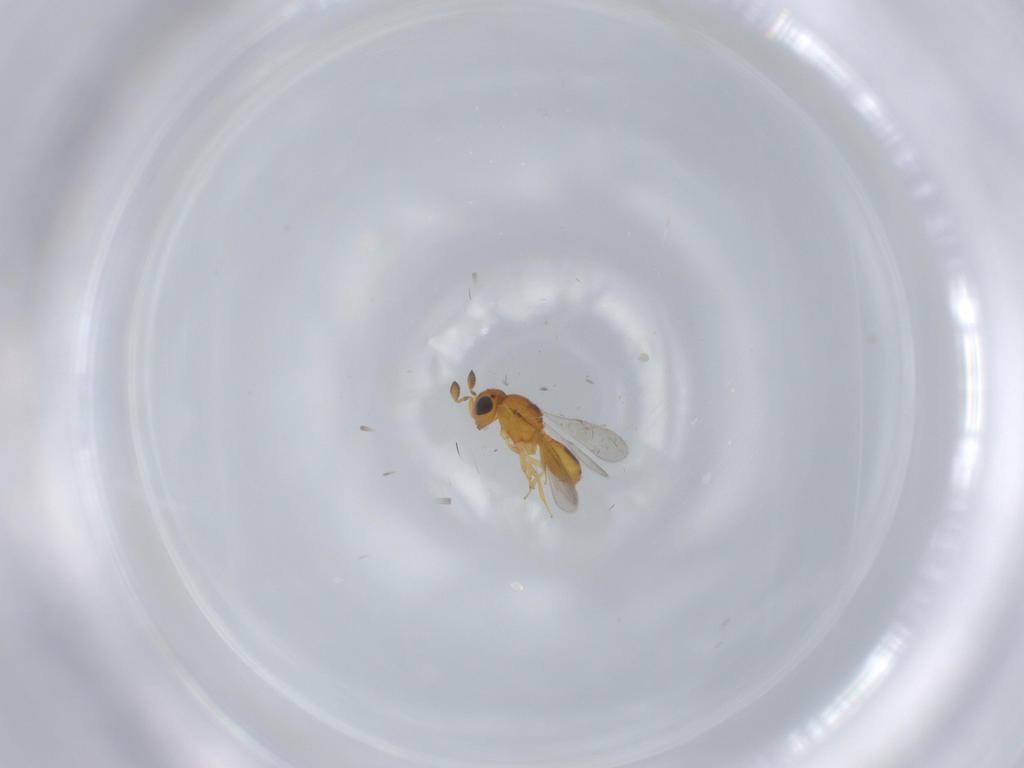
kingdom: Animalia
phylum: Arthropoda
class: Insecta
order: Hymenoptera
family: Scelionidae
